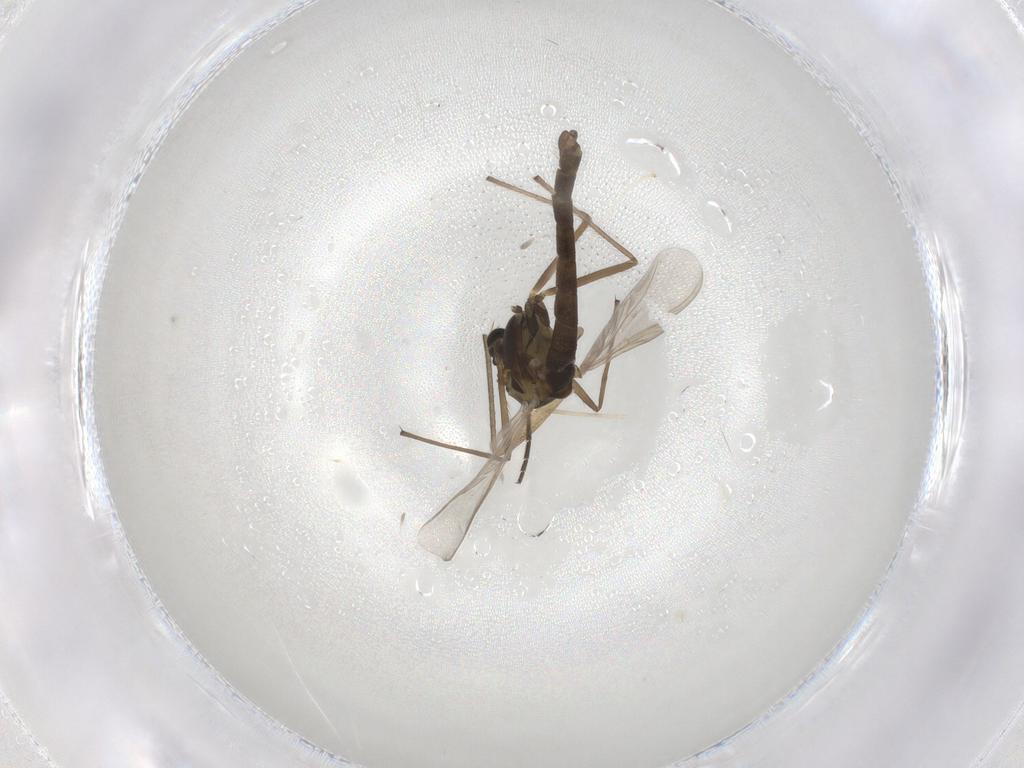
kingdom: Animalia
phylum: Arthropoda
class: Insecta
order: Diptera
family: Chironomidae
